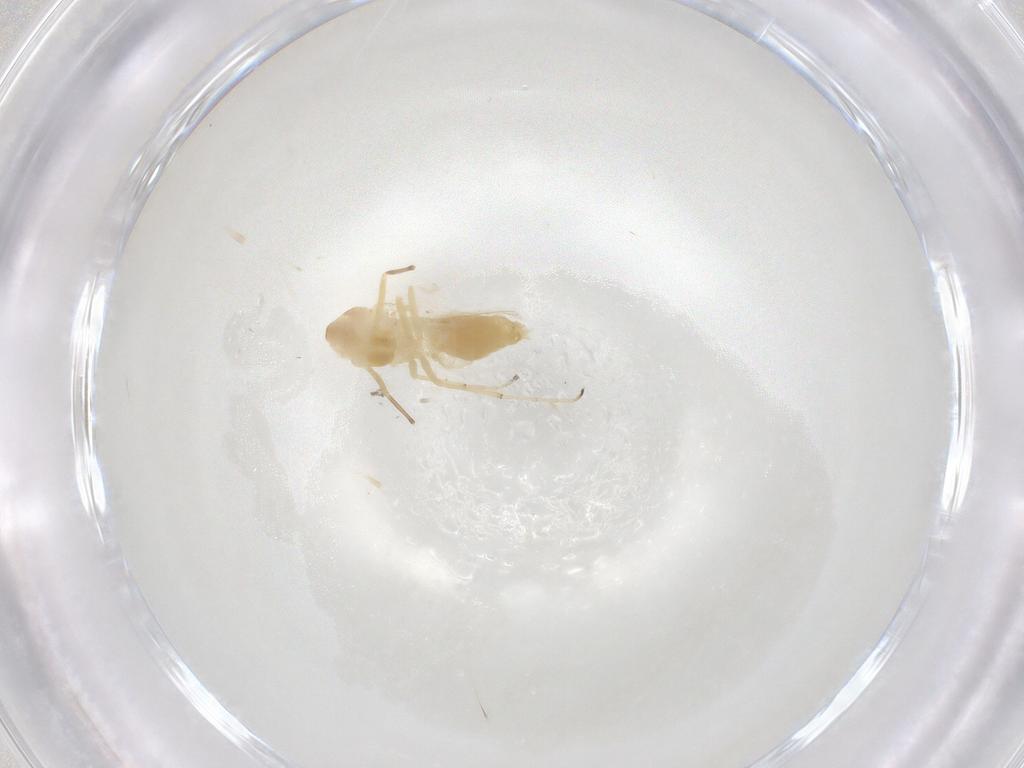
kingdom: Animalia
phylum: Arthropoda
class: Insecta
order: Diptera
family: Chironomidae
